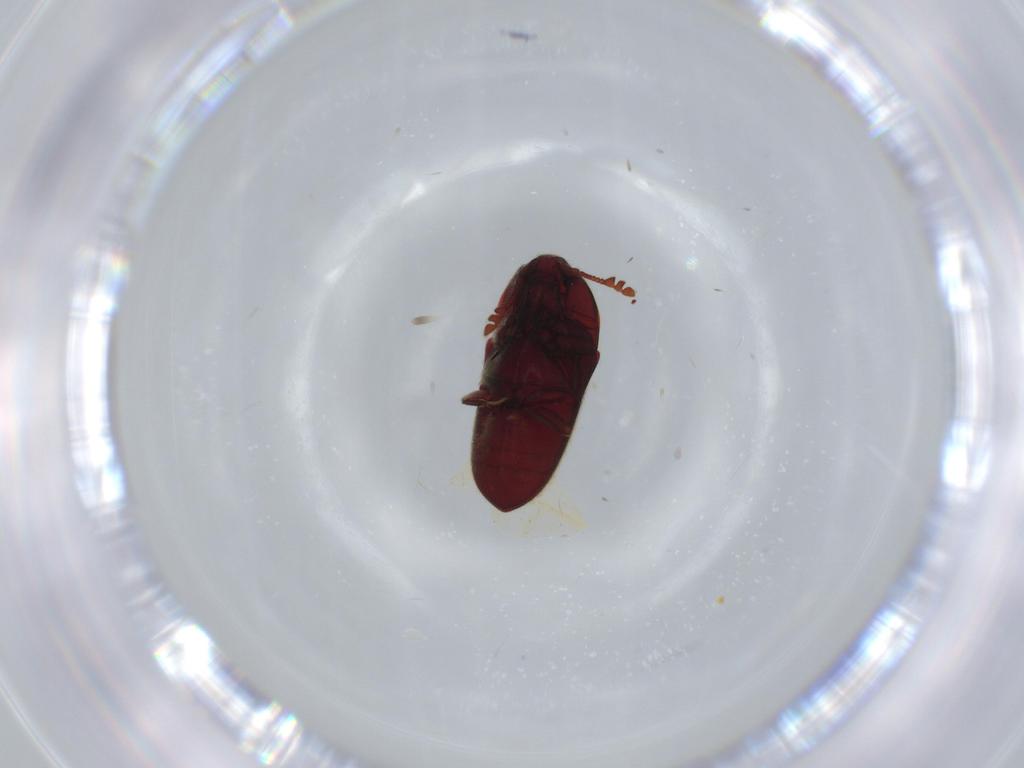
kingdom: Animalia
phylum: Arthropoda
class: Insecta
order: Coleoptera
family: Throscidae
